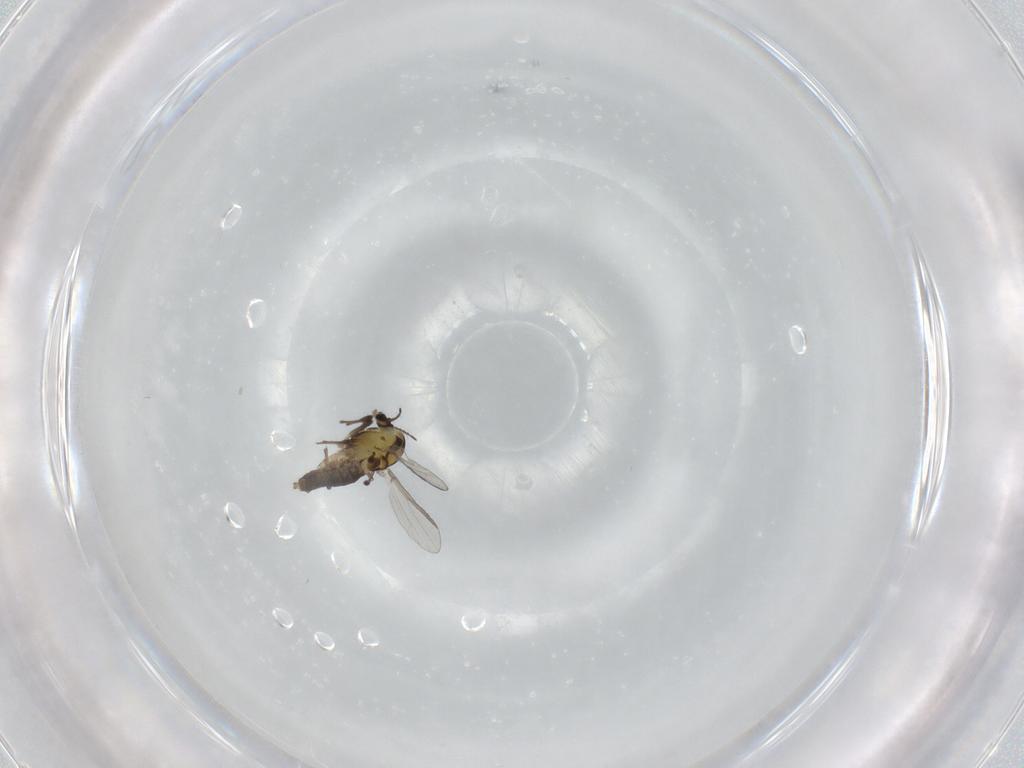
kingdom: Animalia
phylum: Arthropoda
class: Insecta
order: Diptera
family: Chironomidae
